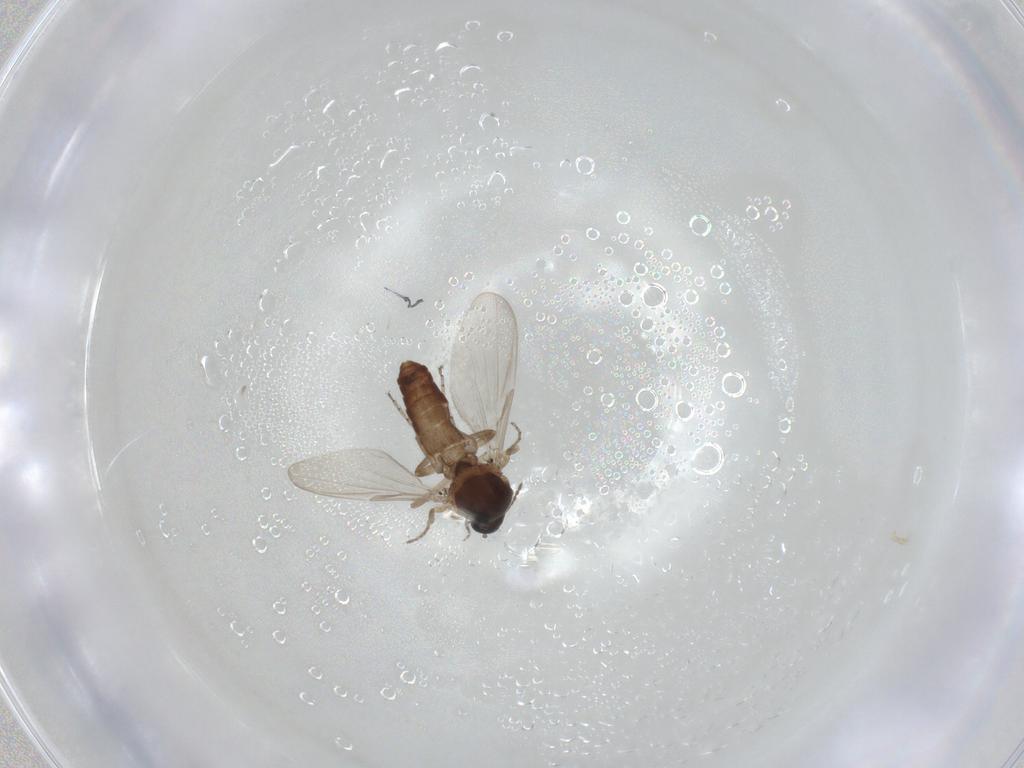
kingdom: Animalia
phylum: Arthropoda
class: Insecta
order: Diptera
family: Ceratopogonidae
